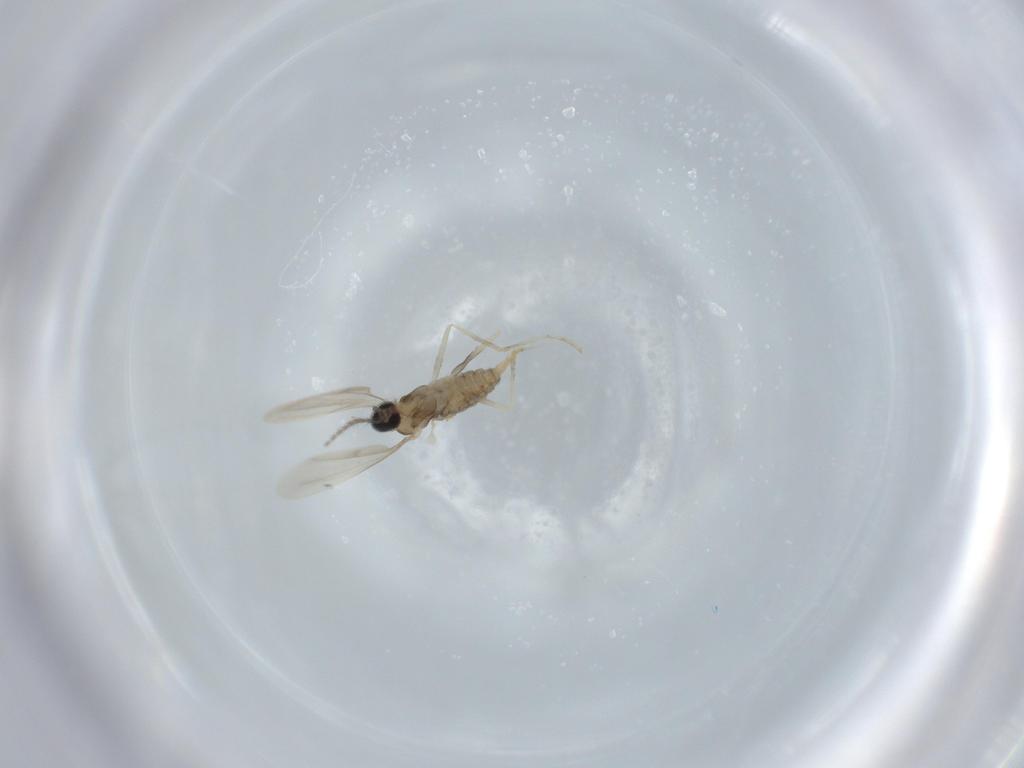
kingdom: Animalia
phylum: Arthropoda
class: Insecta
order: Diptera
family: Cecidomyiidae
